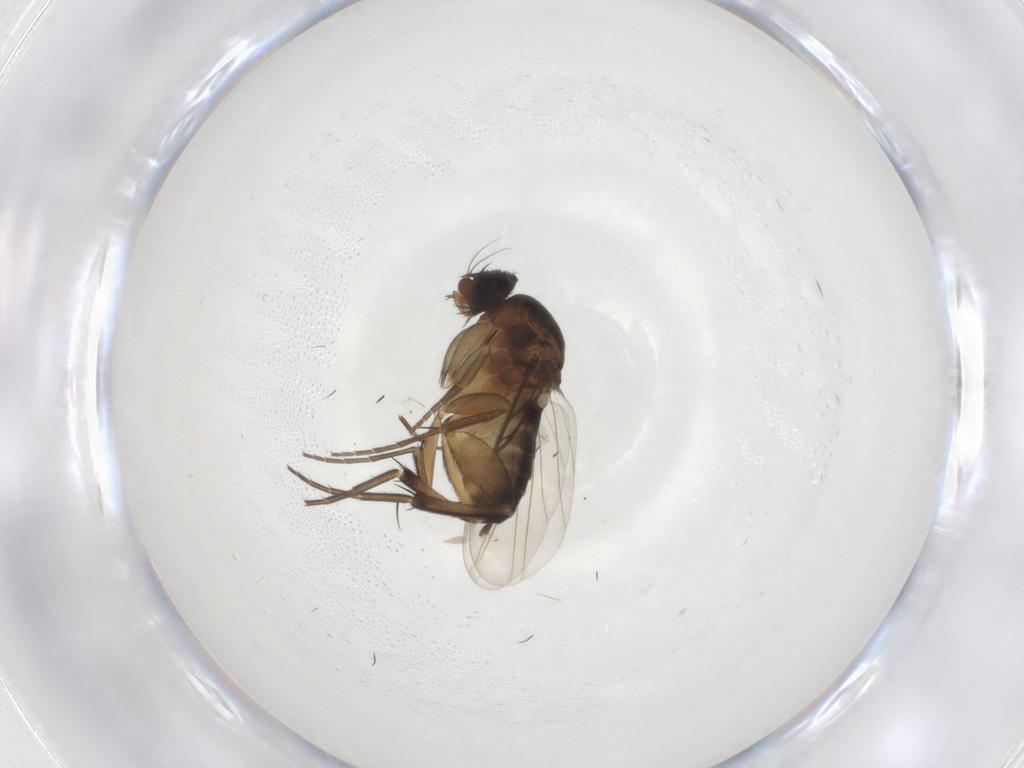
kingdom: Animalia
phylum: Arthropoda
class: Insecta
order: Diptera
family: Phoridae
